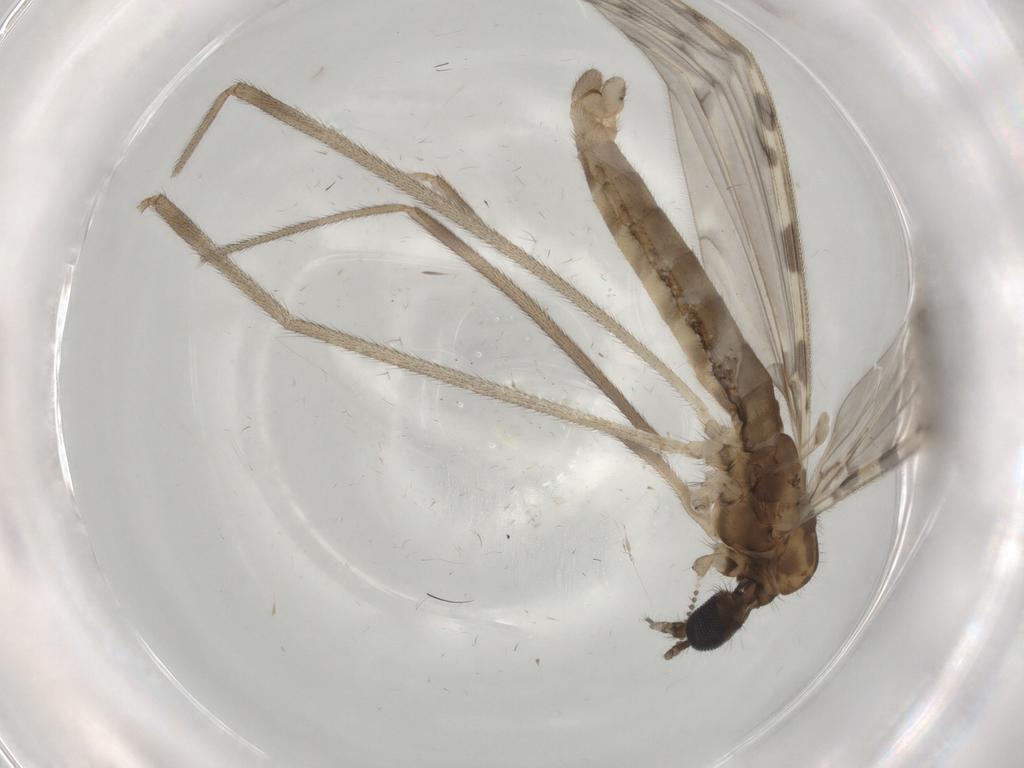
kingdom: Animalia
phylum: Arthropoda
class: Insecta
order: Diptera
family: Limoniidae
